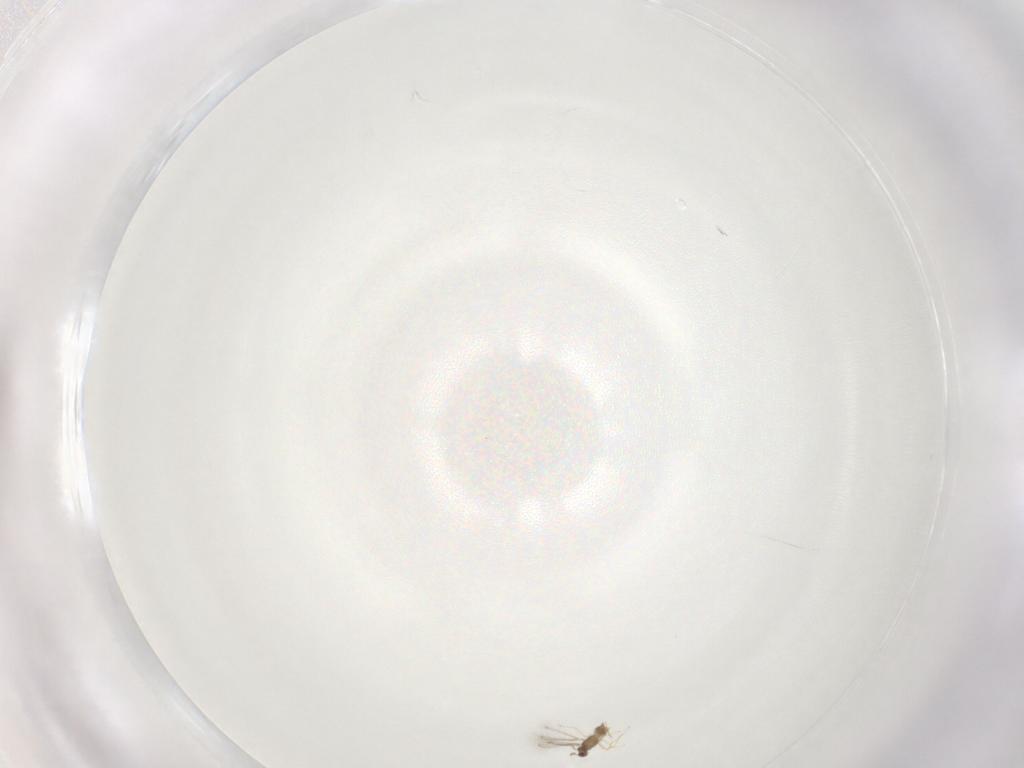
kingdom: Animalia
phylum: Arthropoda
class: Insecta
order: Hymenoptera
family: Mymaridae
